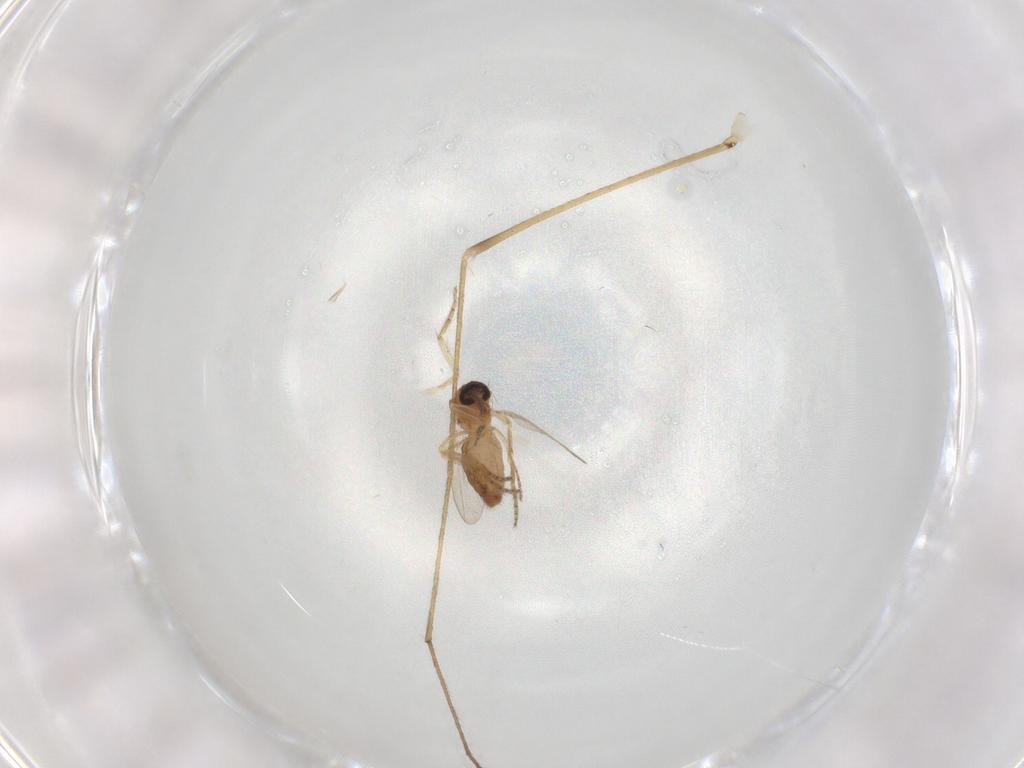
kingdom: Animalia
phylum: Arthropoda
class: Insecta
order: Diptera
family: Ceratopogonidae
